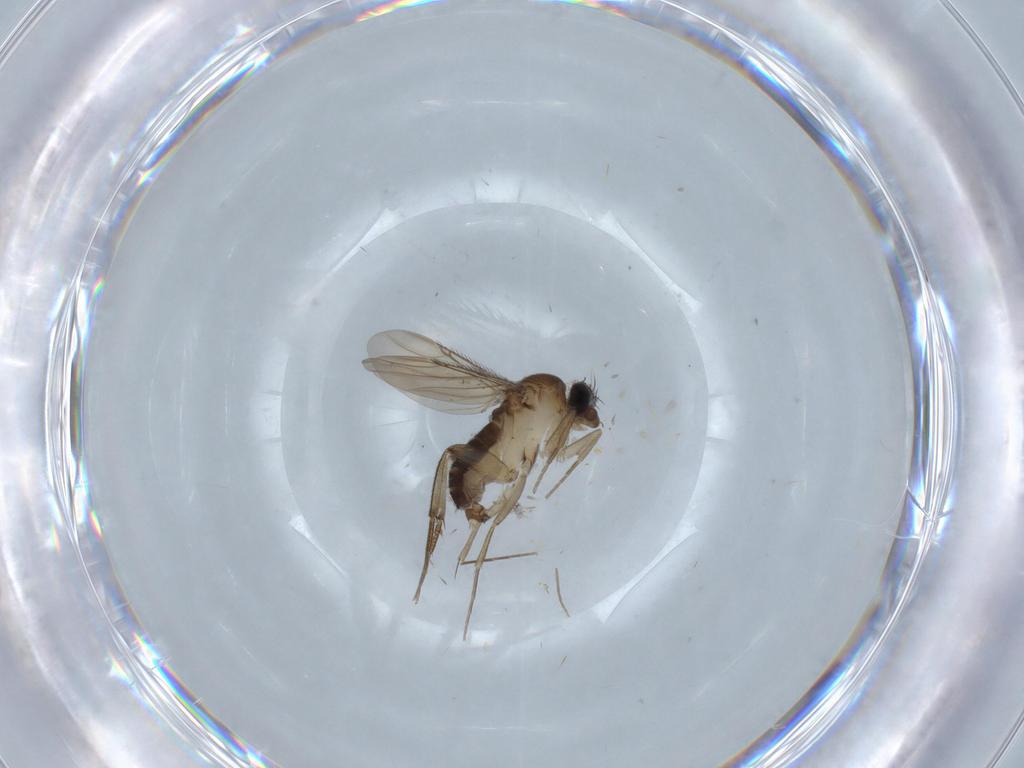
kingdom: Animalia
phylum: Arthropoda
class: Insecta
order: Diptera
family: Phoridae
